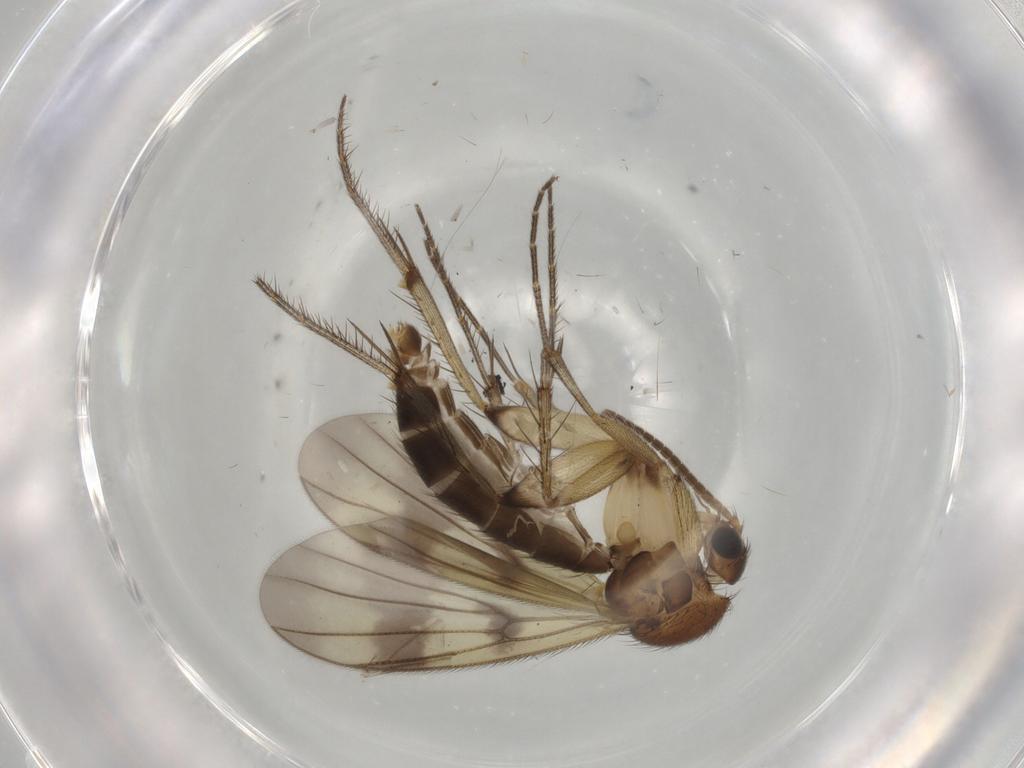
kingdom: Animalia
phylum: Arthropoda
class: Insecta
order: Diptera
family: Sciaridae
